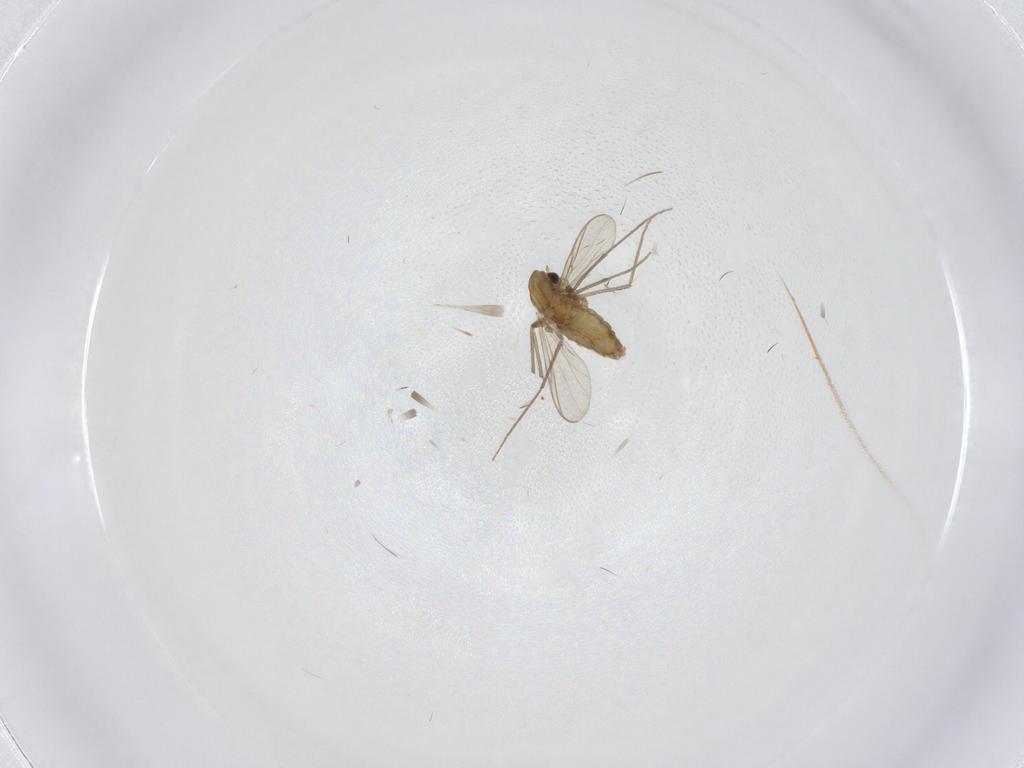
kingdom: Animalia
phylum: Arthropoda
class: Insecta
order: Diptera
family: Chironomidae
